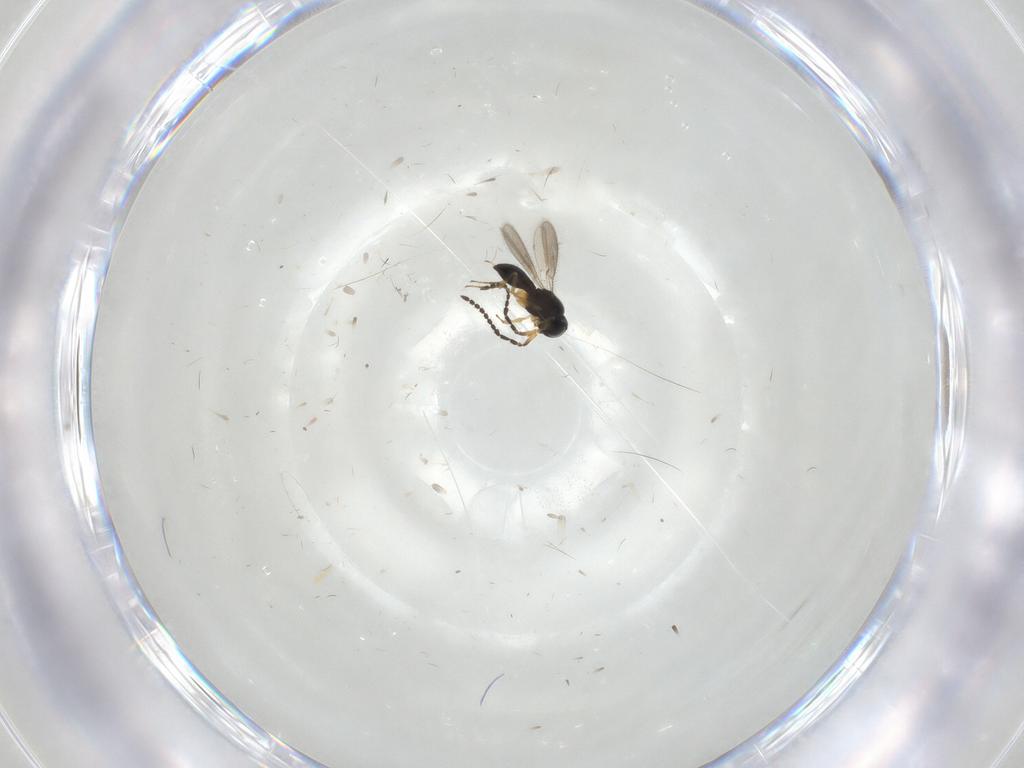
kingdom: Animalia
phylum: Arthropoda
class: Insecta
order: Hymenoptera
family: Scelionidae
